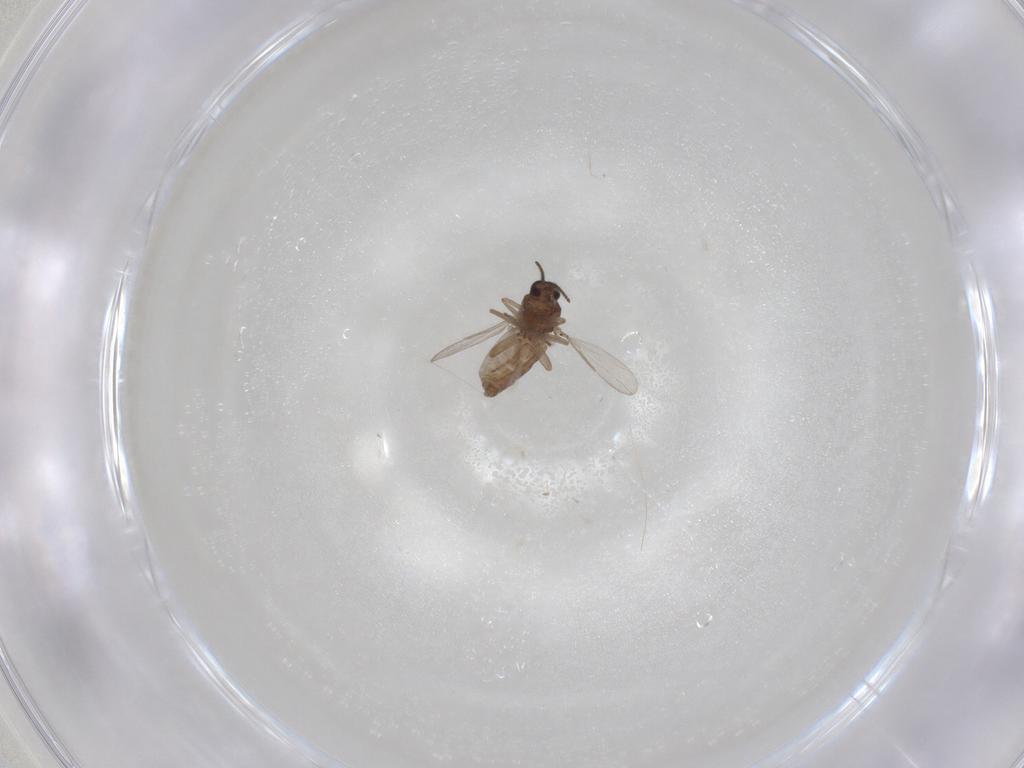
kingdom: Animalia
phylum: Arthropoda
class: Insecta
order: Diptera
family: Ceratopogonidae
